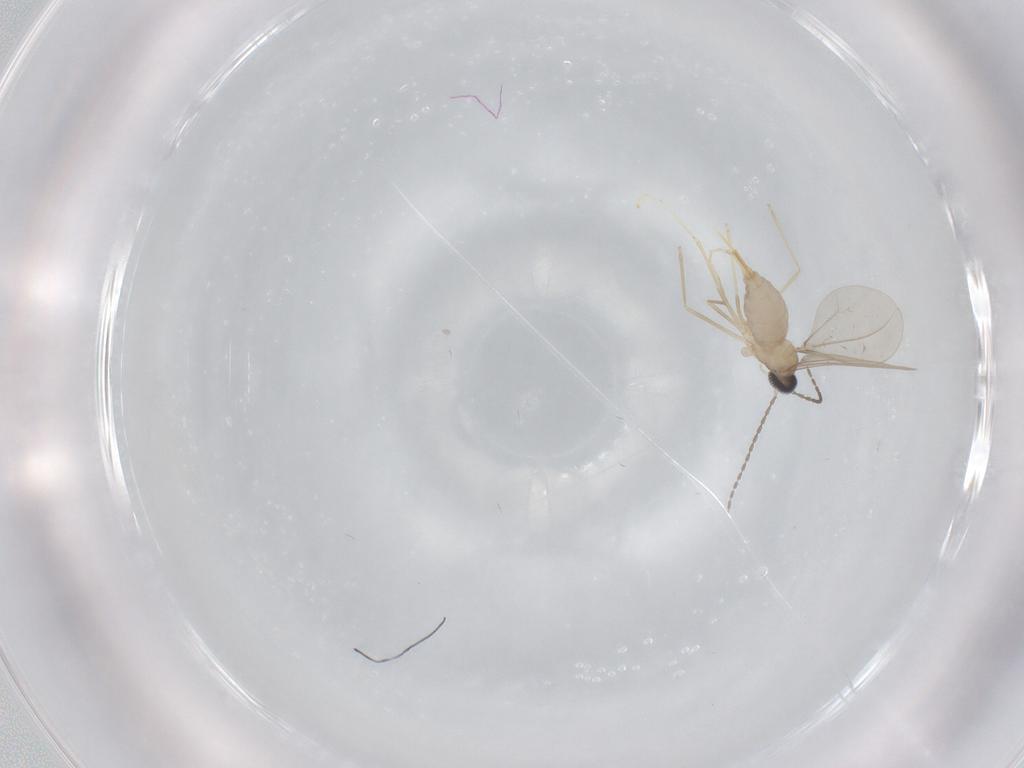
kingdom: Animalia
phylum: Arthropoda
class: Insecta
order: Diptera
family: Cecidomyiidae
